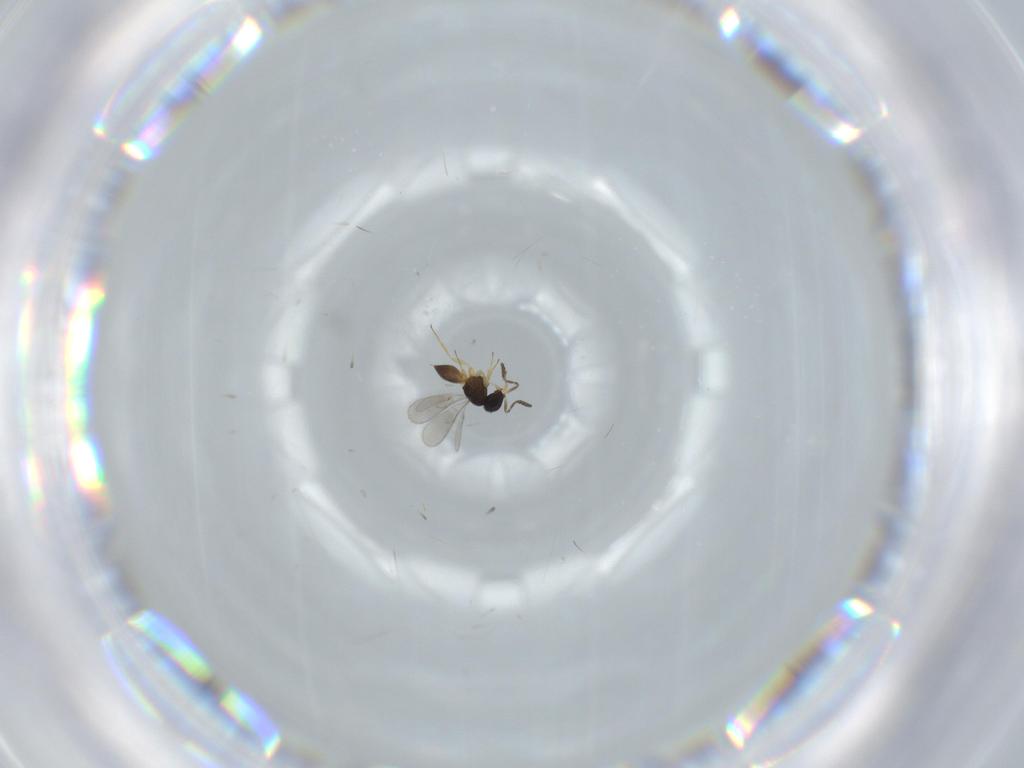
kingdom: Animalia
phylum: Arthropoda
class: Insecta
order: Hymenoptera
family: Scelionidae
